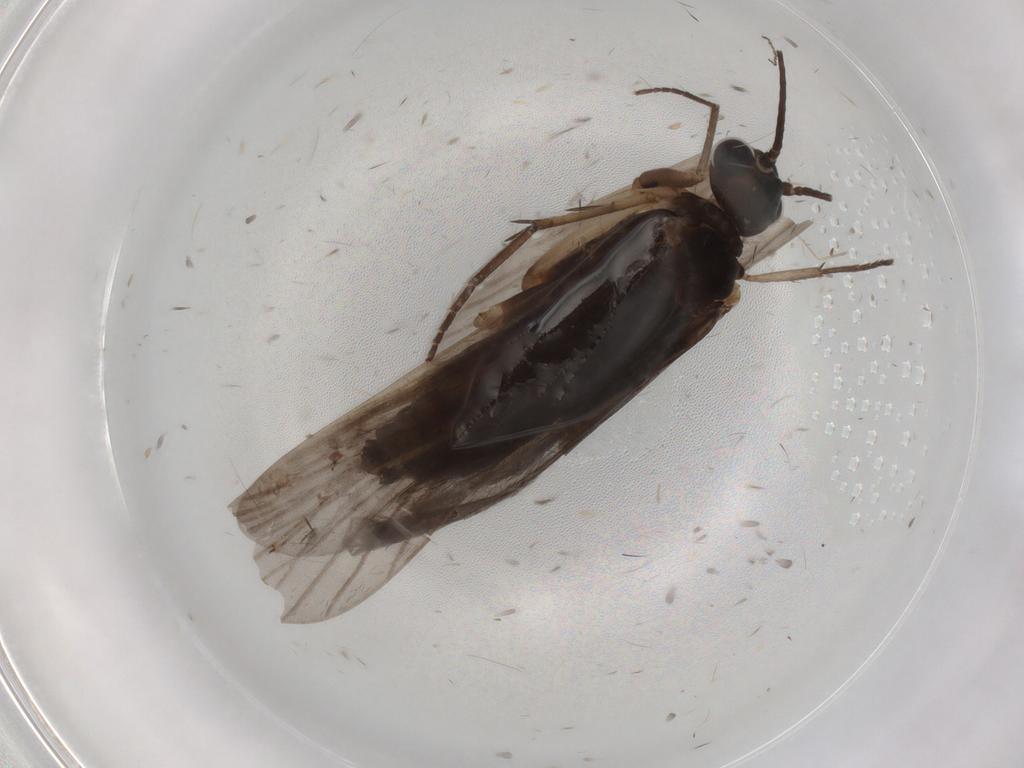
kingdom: Animalia
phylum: Arthropoda
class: Insecta
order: Trichoptera
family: Philopotamidae
